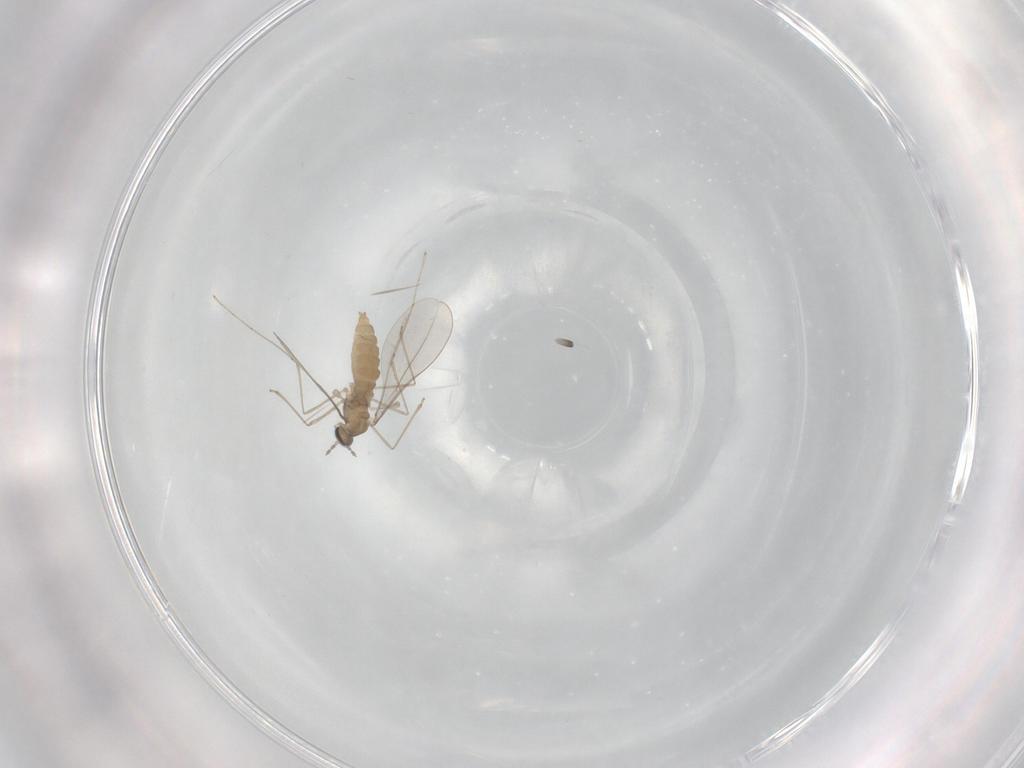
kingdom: Animalia
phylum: Arthropoda
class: Insecta
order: Diptera
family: Cecidomyiidae
